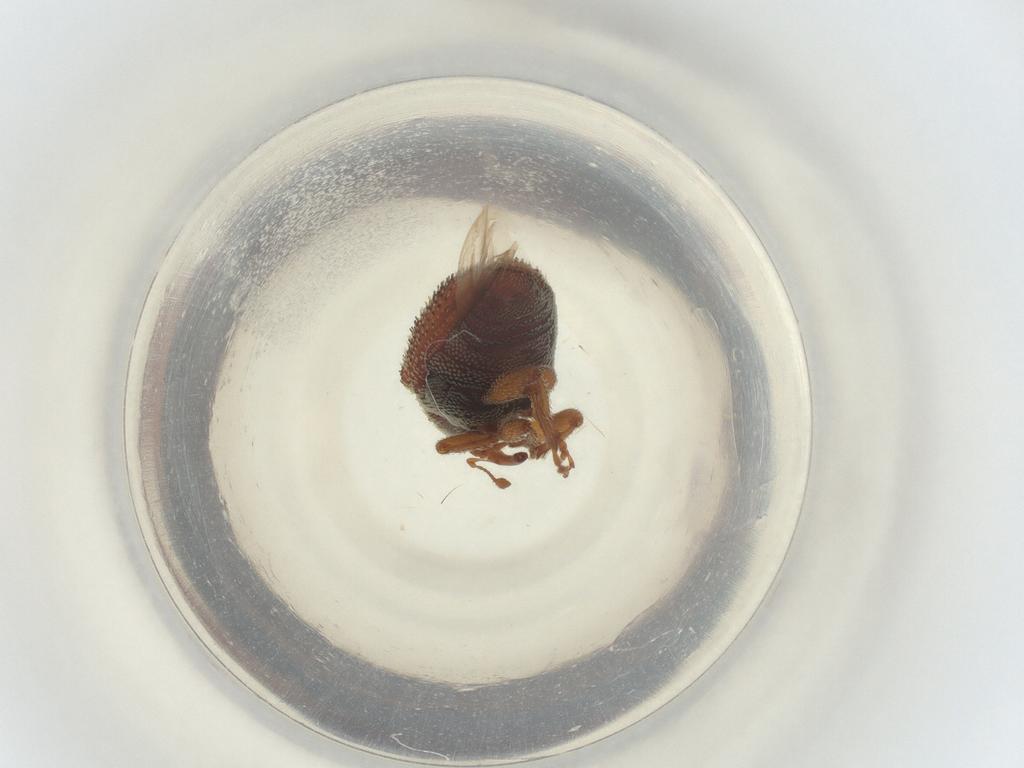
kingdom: Animalia
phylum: Arthropoda
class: Insecta
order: Coleoptera
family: Curculionidae
